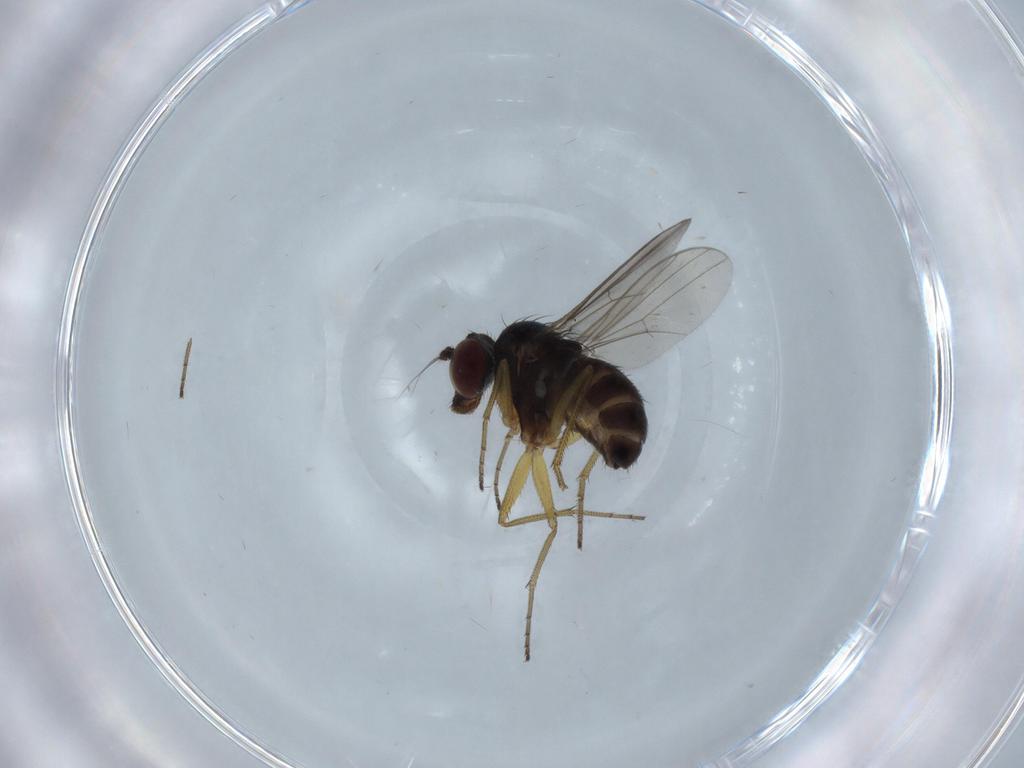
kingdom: Animalia
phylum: Arthropoda
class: Insecta
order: Diptera
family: Dolichopodidae
